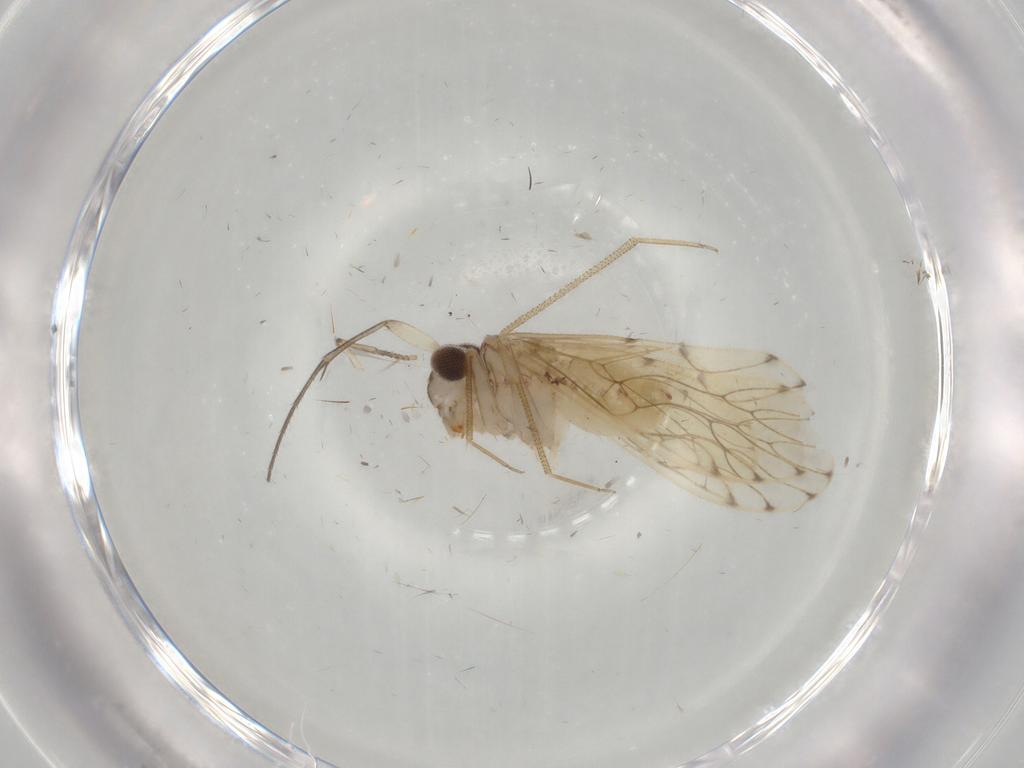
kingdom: Animalia
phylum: Arthropoda
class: Insecta
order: Psocodea
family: Epipsocidae
